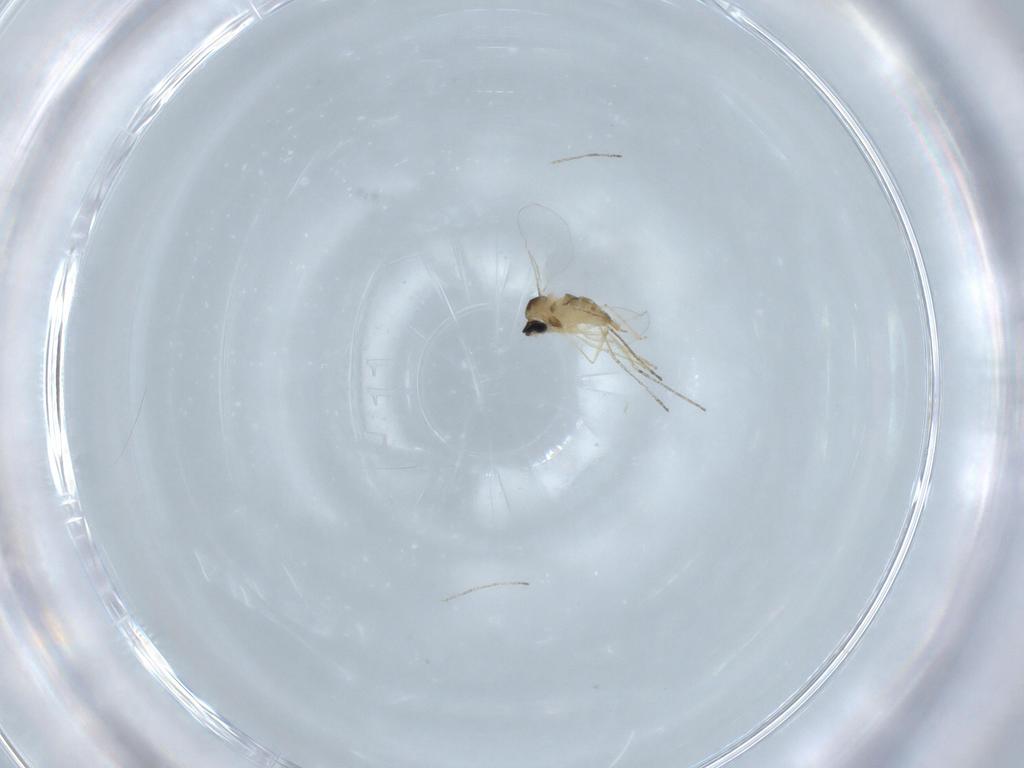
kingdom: Animalia
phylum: Arthropoda
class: Insecta
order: Diptera
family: Cecidomyiidae
